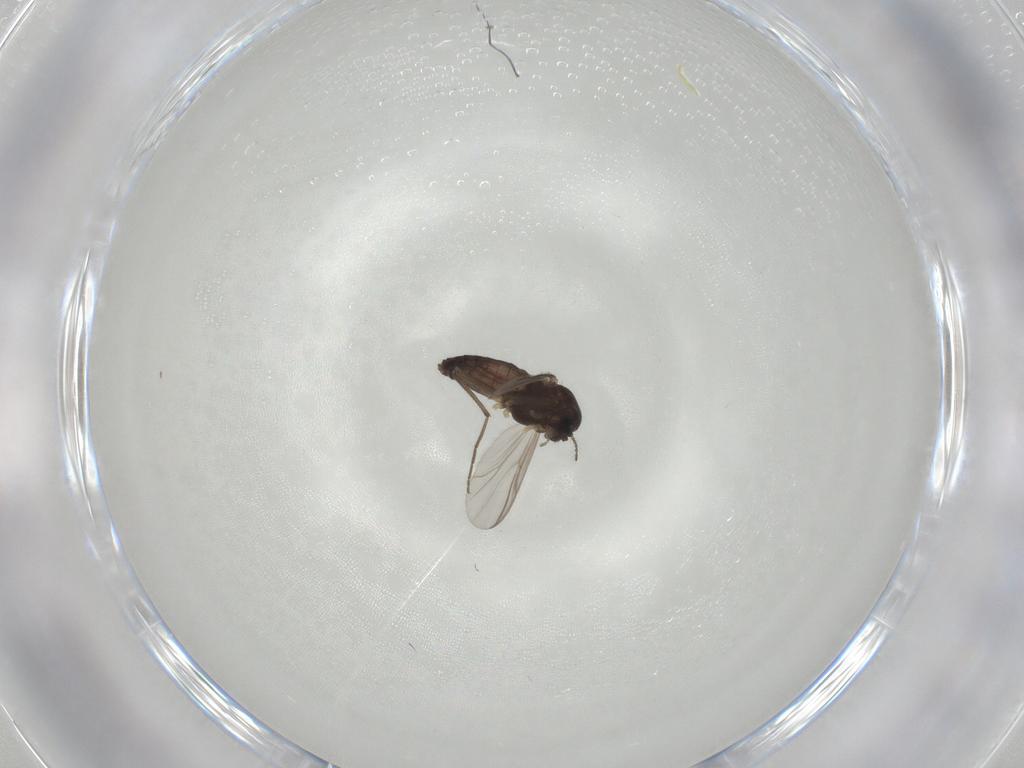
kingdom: Animalia
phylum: Arthropoda
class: Insecta
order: Diptera
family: Chironomidae
